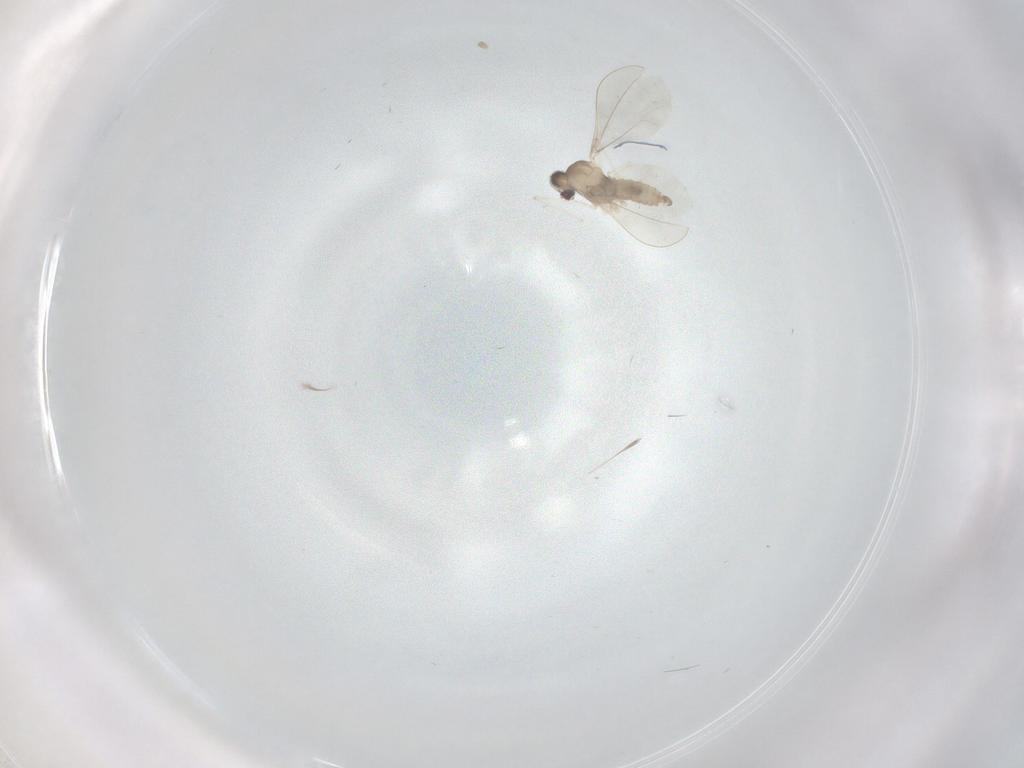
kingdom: Animalia
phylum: Arthropoda
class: Insecta
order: Diptera
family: Cecidomyiidae
